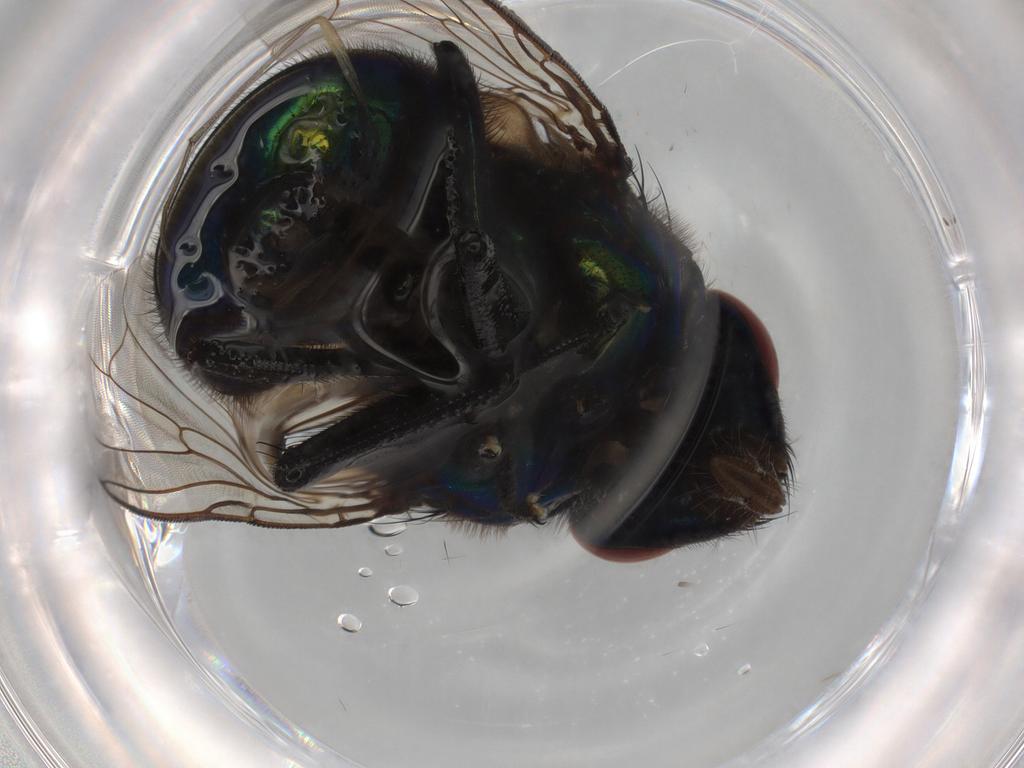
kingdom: Animalia
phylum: Arthropoda
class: Insecta
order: Diptera
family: Muscidae
